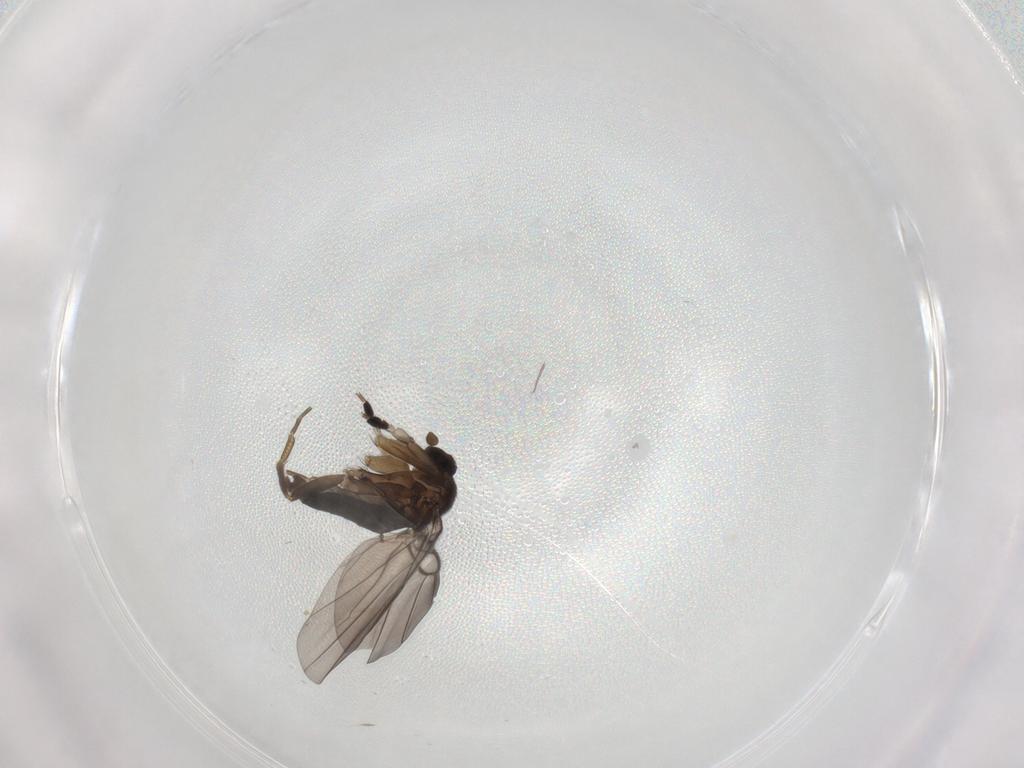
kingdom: Animalia
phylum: Arthropoda
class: Insecta
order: Diptera
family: Phoridae
